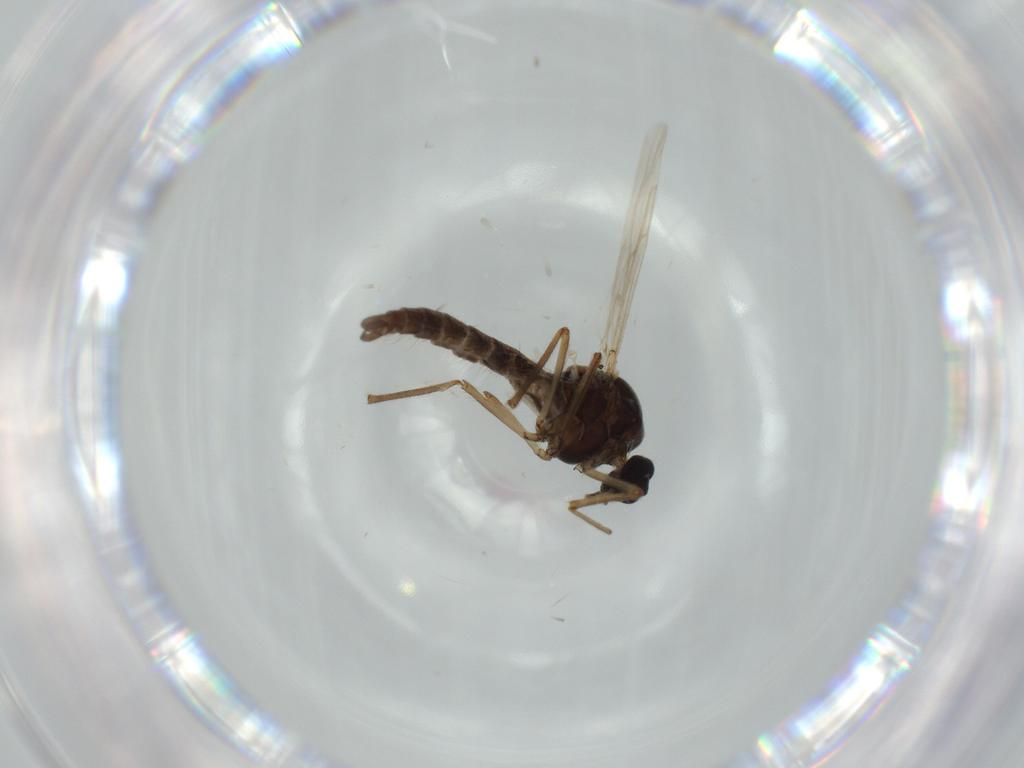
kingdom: Animalia
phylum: Arthropoda
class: Insecta
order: Diptera
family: Ceratopogonidae
